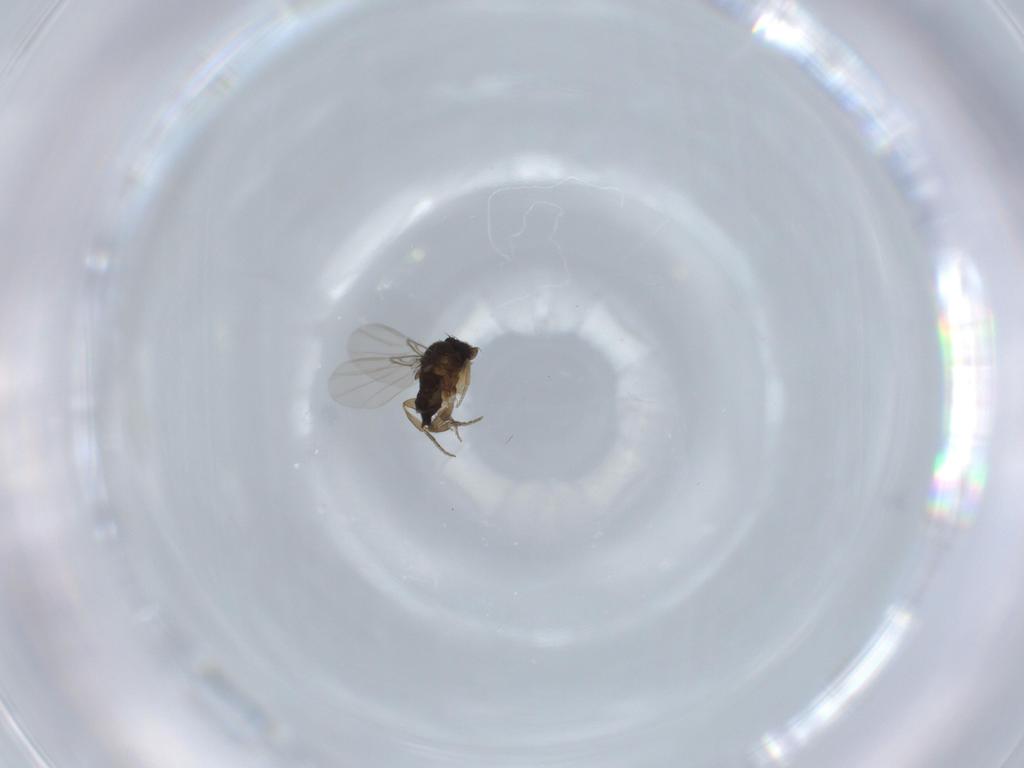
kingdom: Animalia
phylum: Arthropoda
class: Insecta
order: Diptera
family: Phoridae
